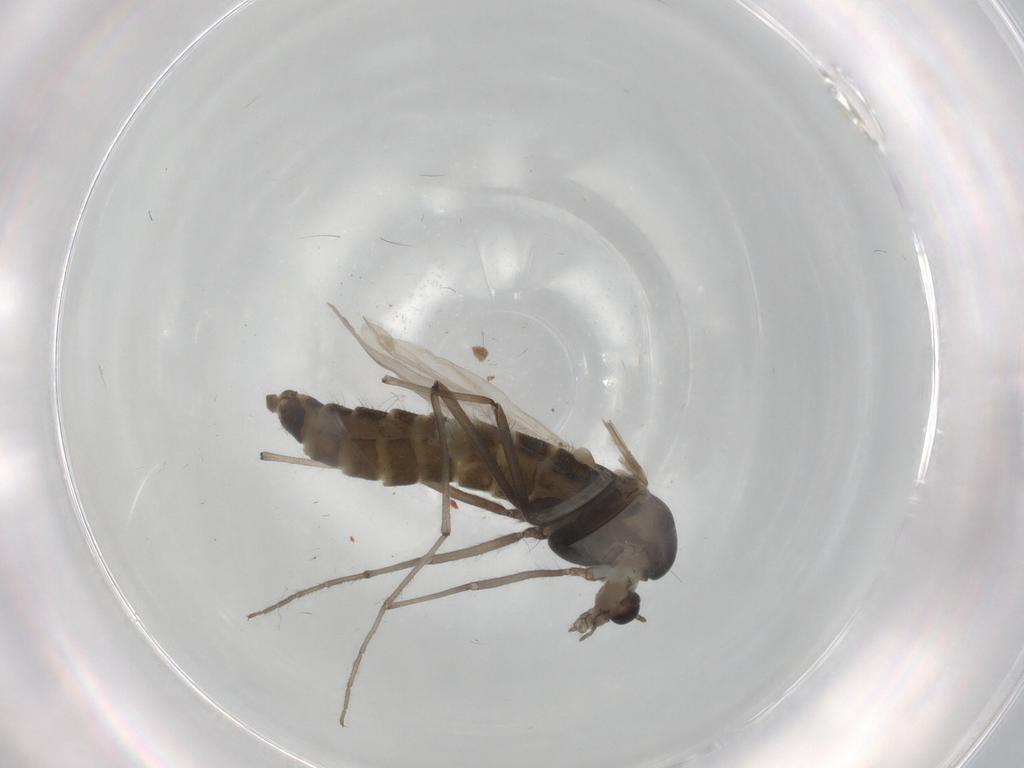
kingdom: Animalia
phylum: Arthropoda
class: Insecta
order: Diptera
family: Chironomidae
